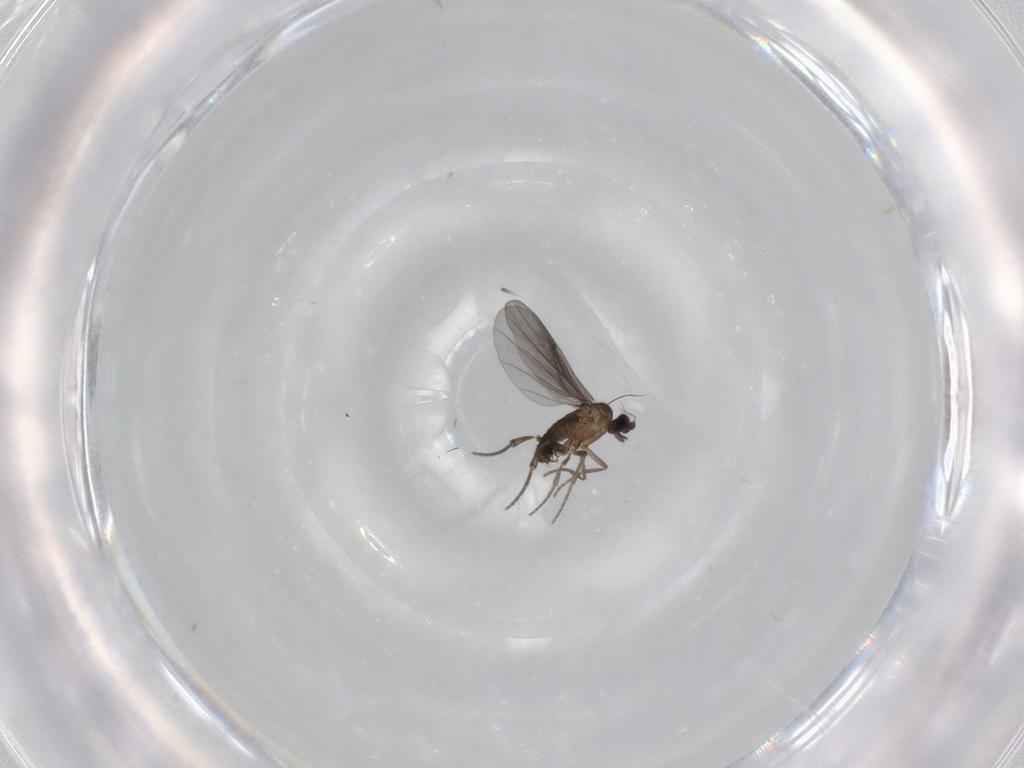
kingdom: Animalia
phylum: Arthropoda
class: Insecta
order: Diptera
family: Phoridae
